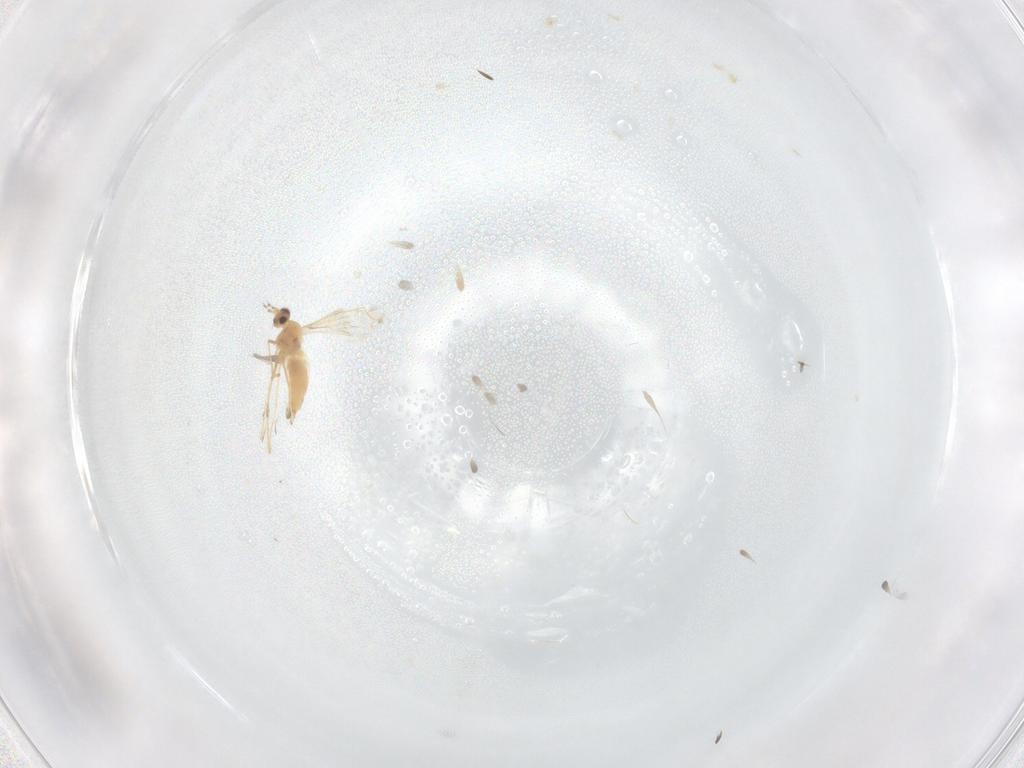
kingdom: Animalia
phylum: Arthropoda
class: Insecta
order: Diptera
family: Cecidomyiidae
